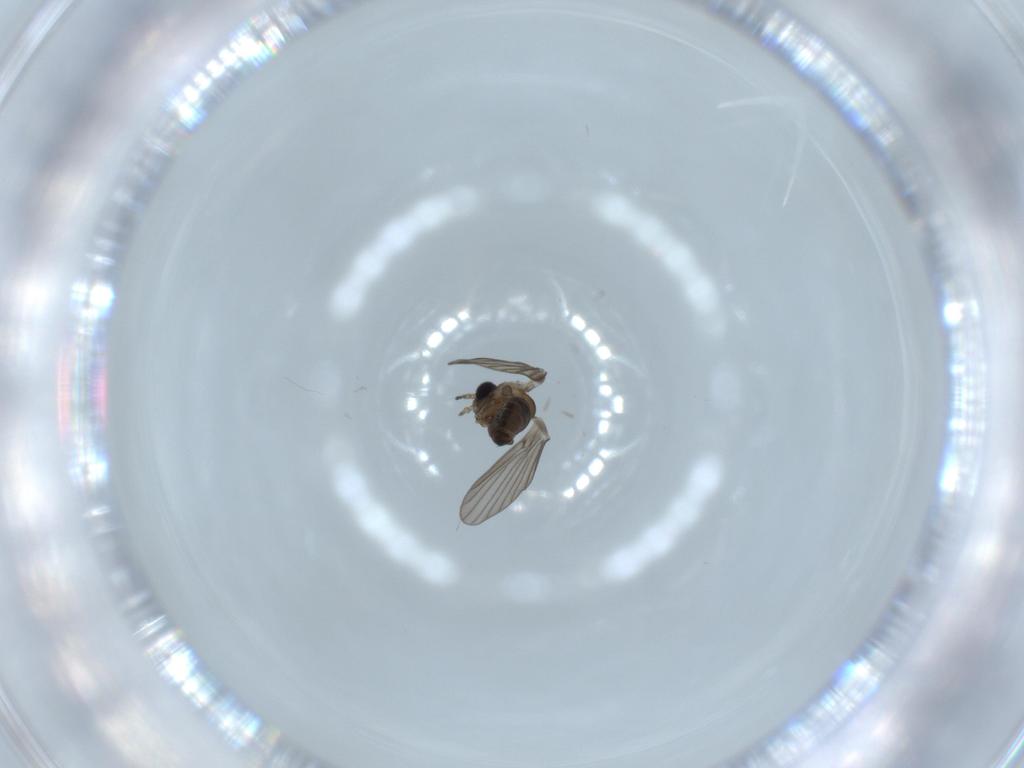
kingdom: Animalia
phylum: Arthropoda
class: Insecta
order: Diptera
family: Psychodidae
